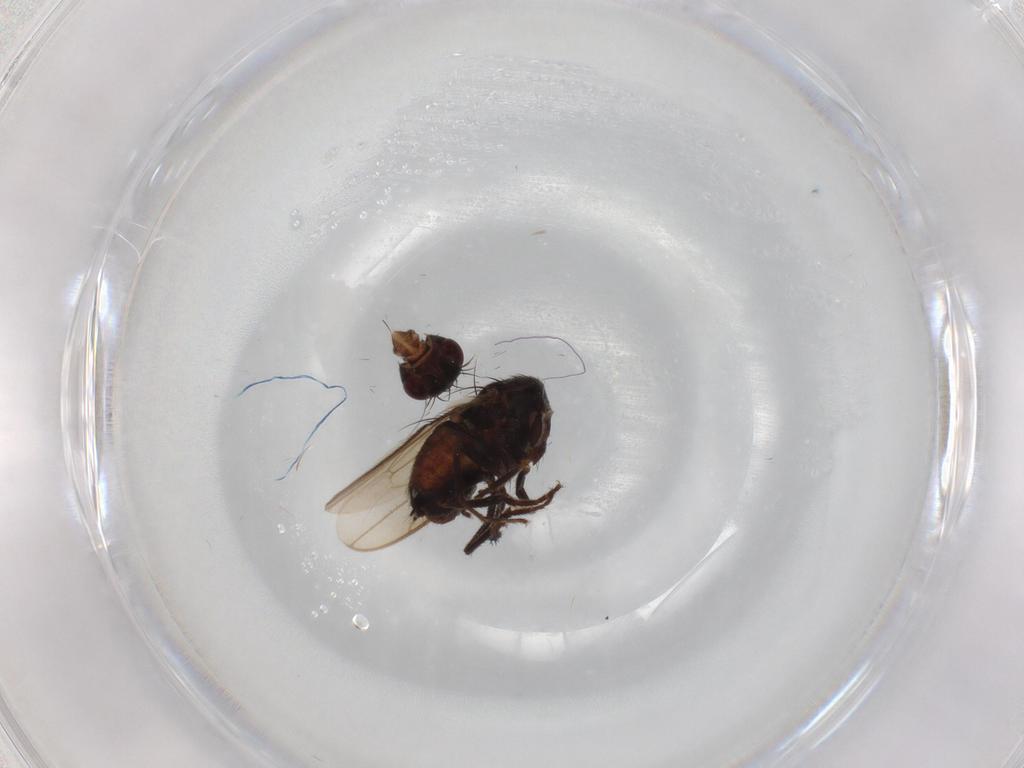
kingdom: Animalia
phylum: Arthropoda
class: Insecta
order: Diptera
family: Sphaeroceridae
